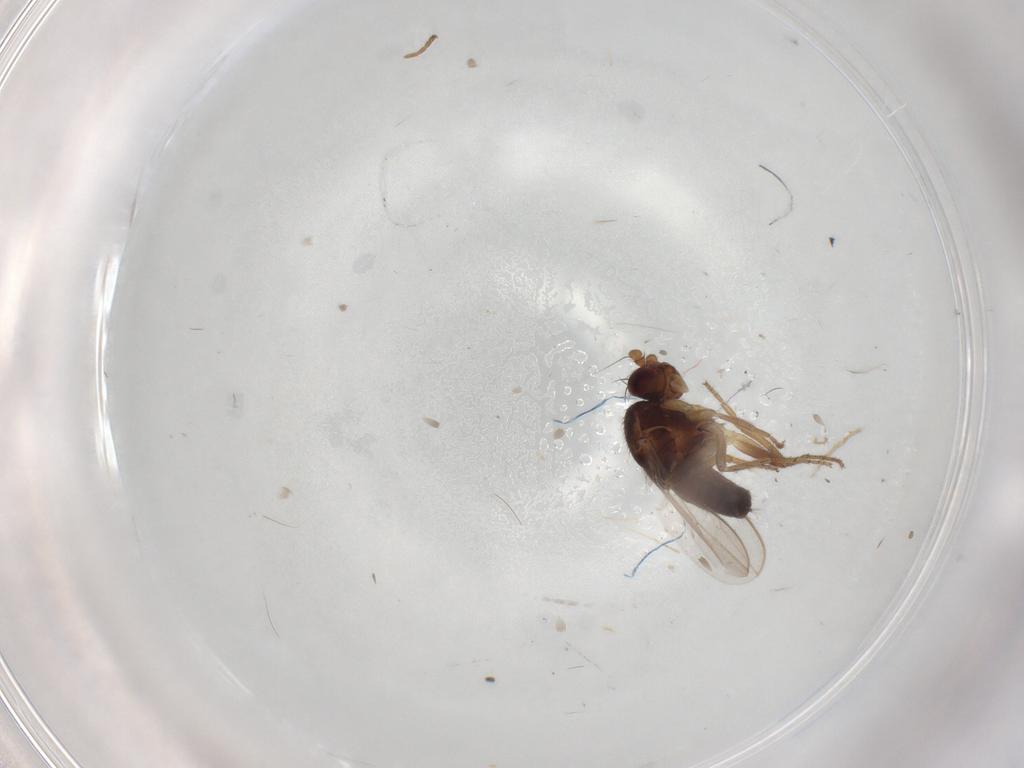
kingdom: Animalia
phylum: Arthropoda
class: Insecta
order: Diptera
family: Sphaeroceridae
